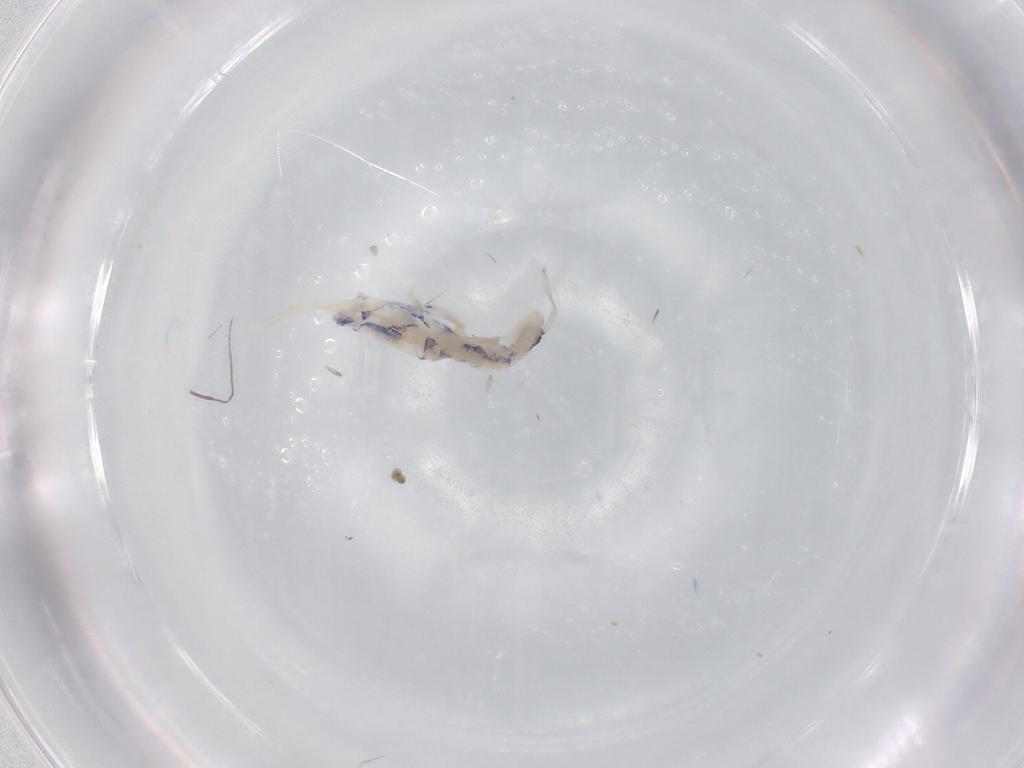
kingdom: Animalia
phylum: Arthropoda
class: Collembola
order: Entomobryomorpha
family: Entomobryidae
